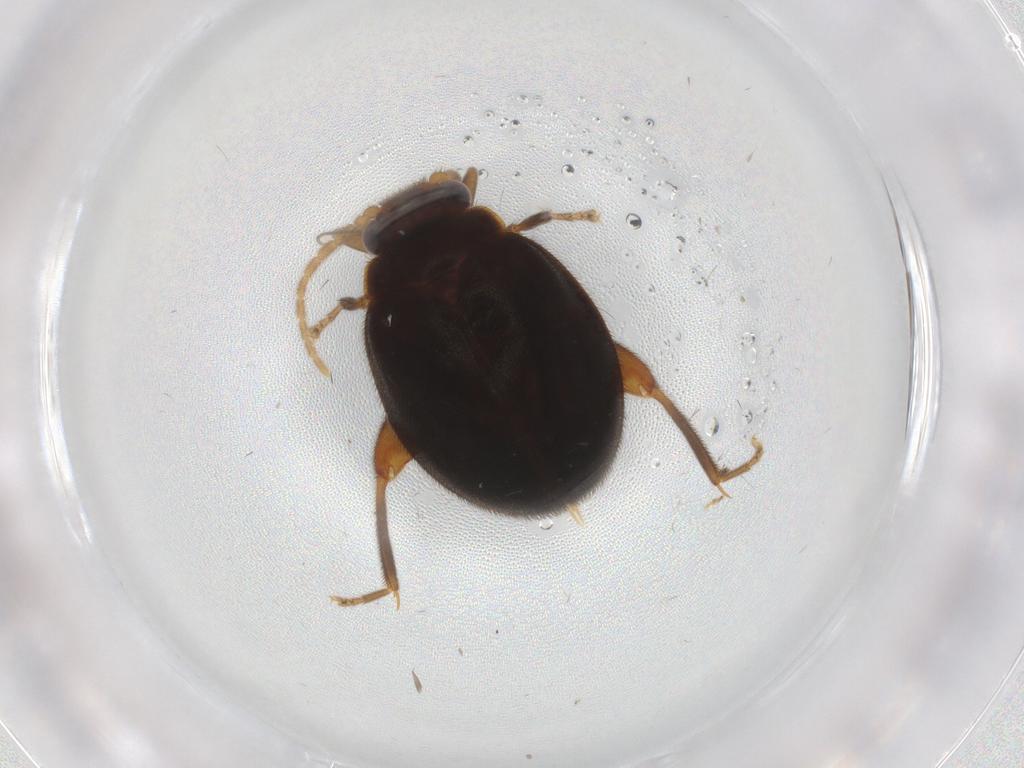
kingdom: Animalia
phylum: Arthropoda
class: Insecta
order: Coleoptera
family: Scirtidae
